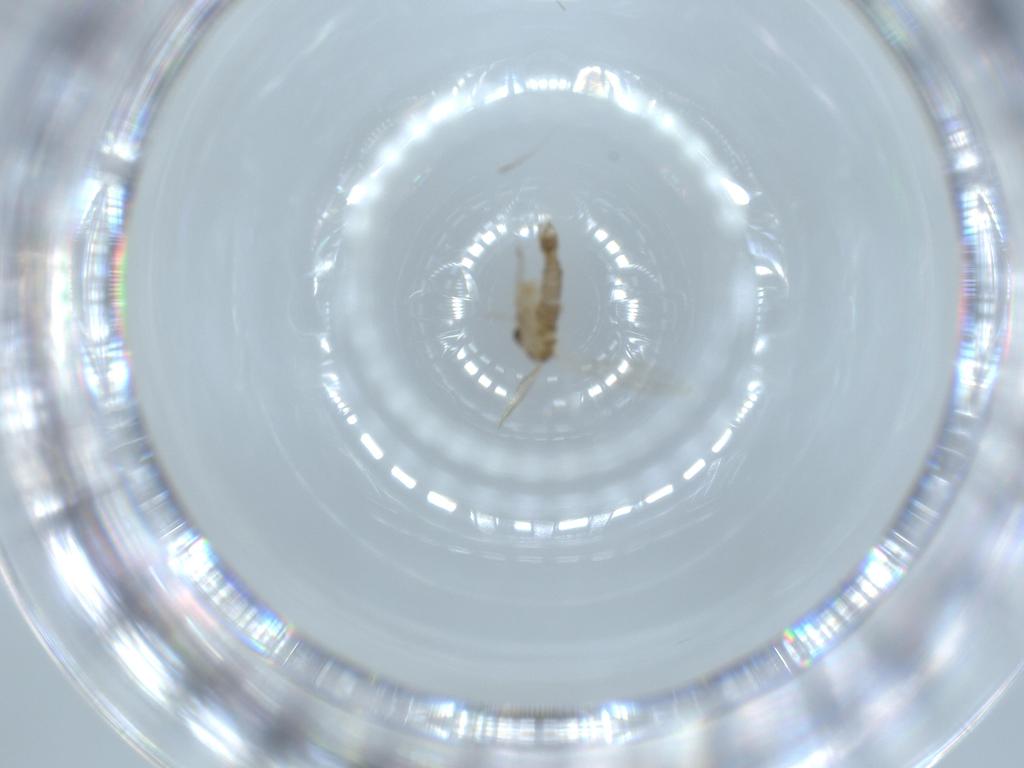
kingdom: Animalia
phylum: Arthropoda
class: Insecta
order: Diptera
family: Psychodidae
